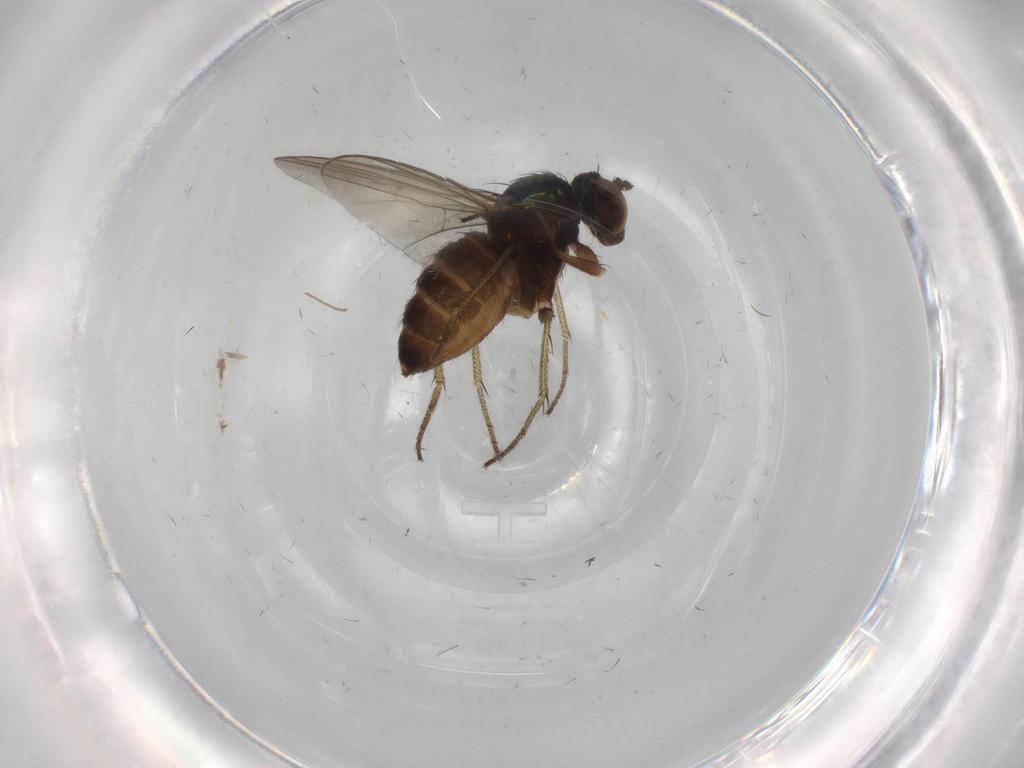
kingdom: Animalia
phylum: Arthropoda
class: Insecta
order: Diptera
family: Dolichopodidae
